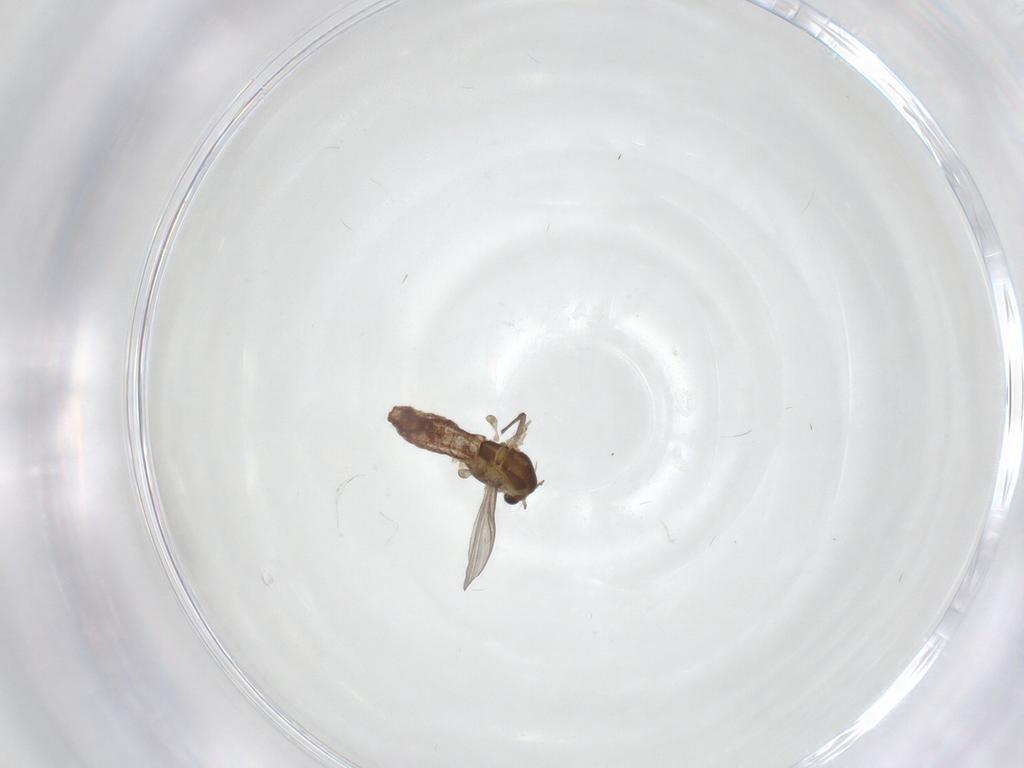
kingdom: Animalia
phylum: Arthropoda
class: Insecta
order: Diptera
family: Chironomidae
